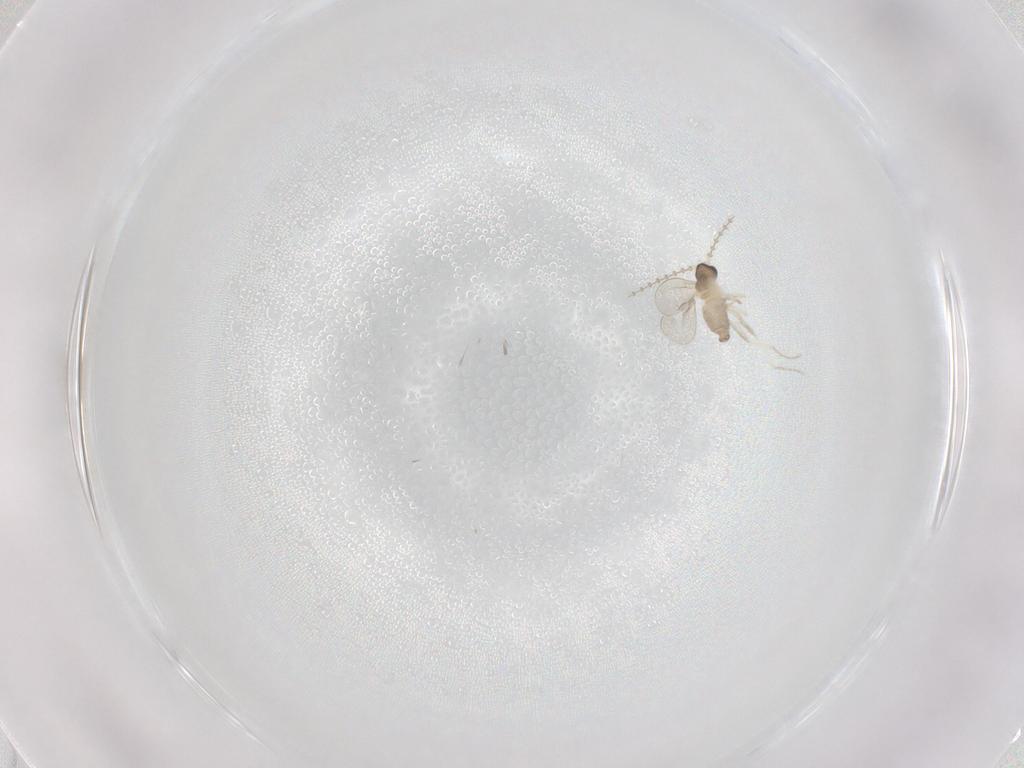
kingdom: Animalia
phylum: Arthropoda
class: Insecta
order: Diptera
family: Cecidomyiidae
